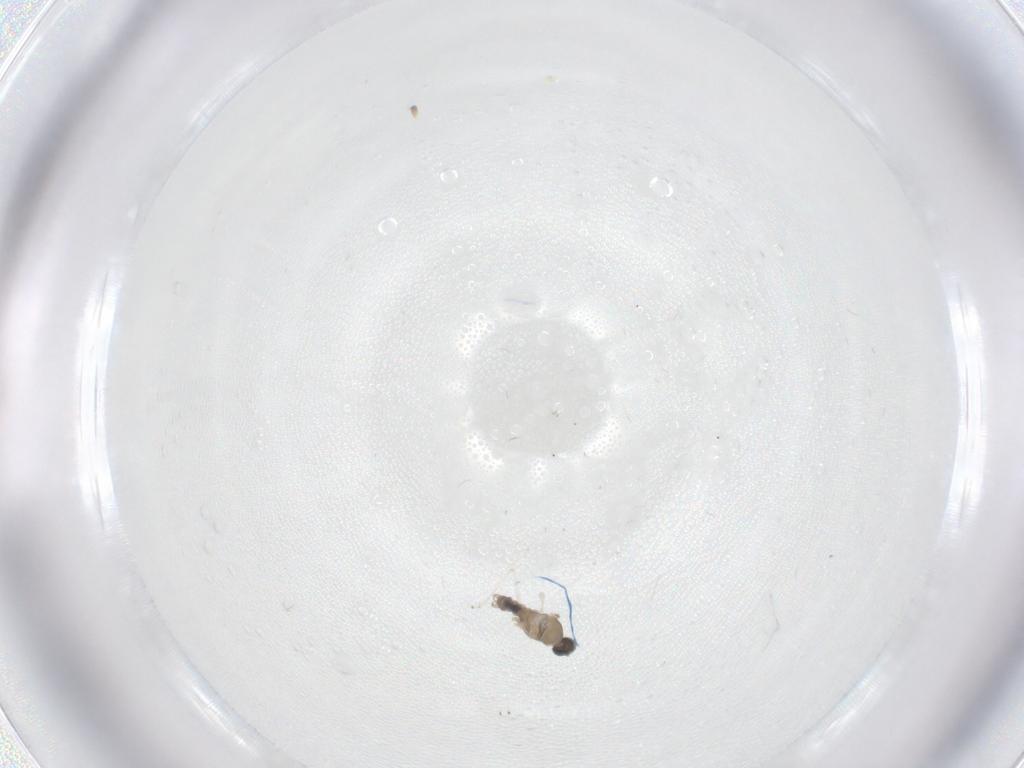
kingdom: Animalia
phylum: Arthropoda
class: Insecta
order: Diptera
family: Cecidomyiidae
